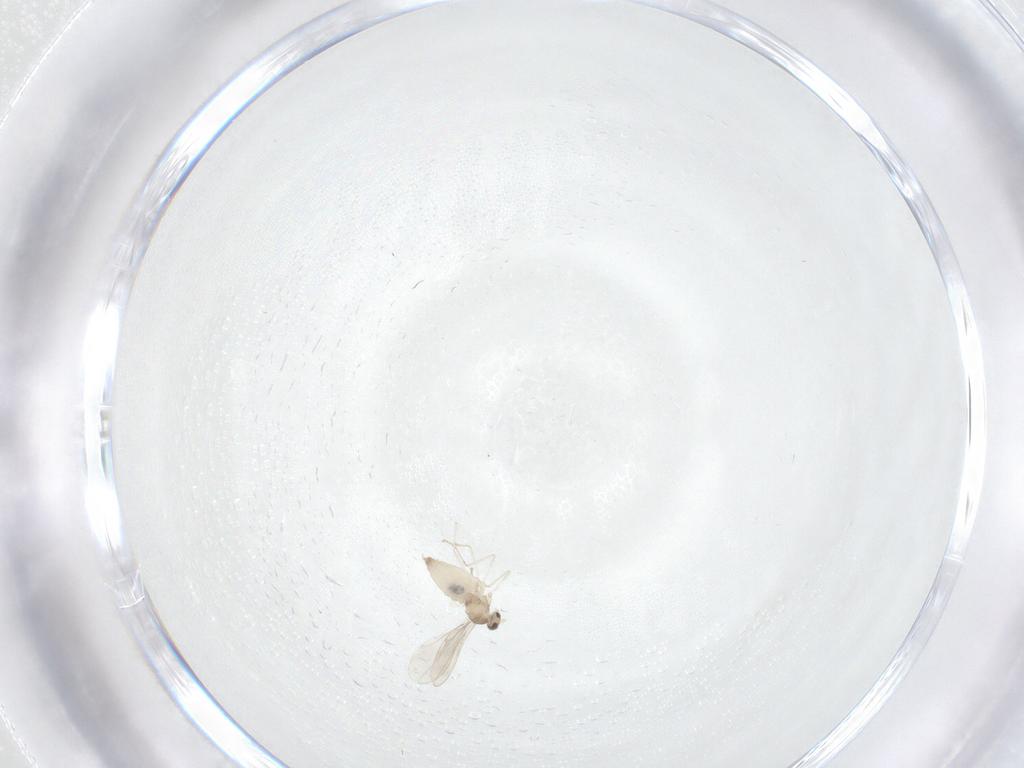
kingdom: Animalia
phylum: Arthropoda
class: Insecta
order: Diptera
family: Cecidomyiidae
